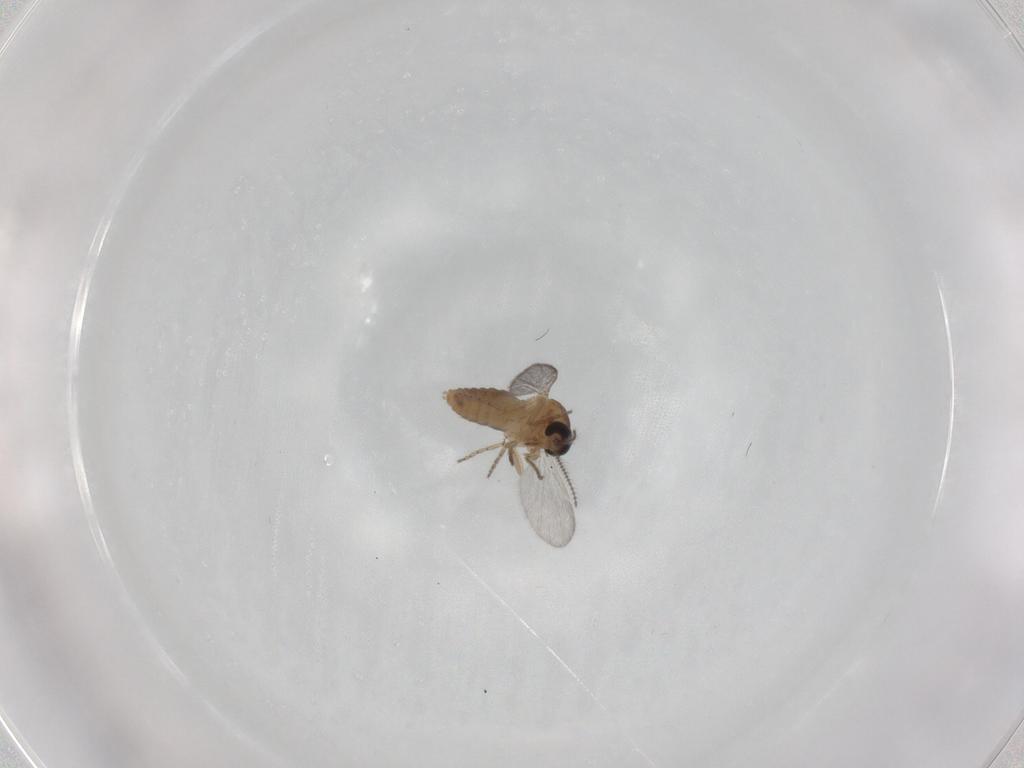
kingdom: Animalia
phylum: Arthropoda
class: Insecta
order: Diptera
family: Ceratopogonidae
